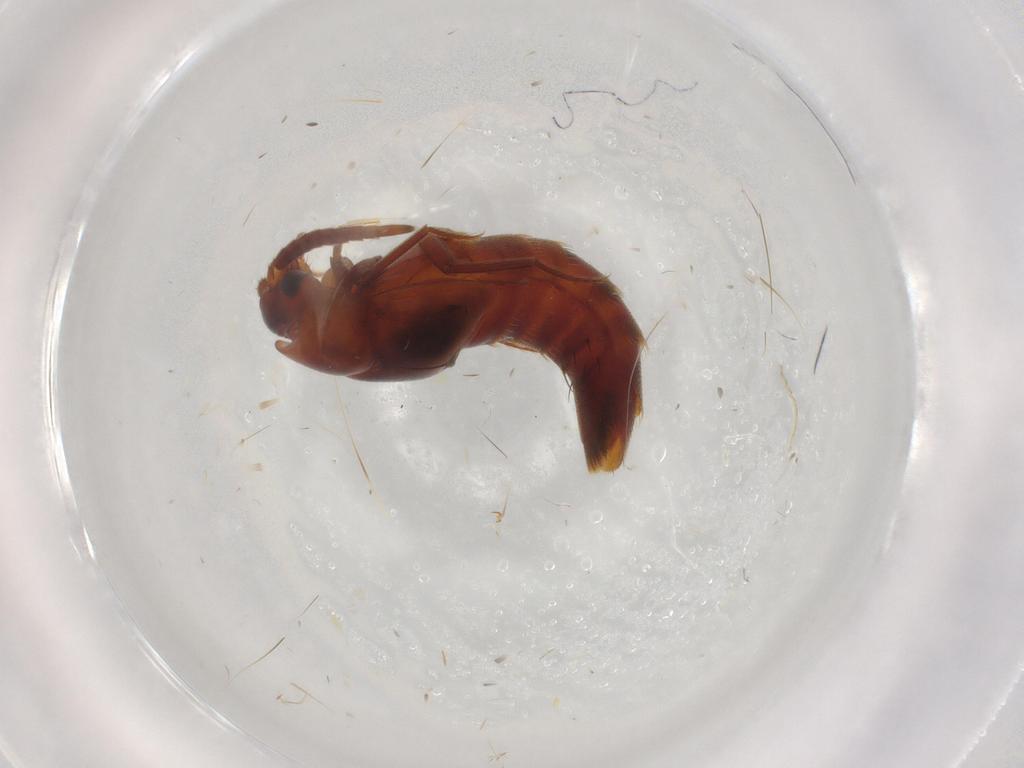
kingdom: Animalia
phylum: Arthropoda
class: Insecta
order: Coleoptera
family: Staphylinidae
